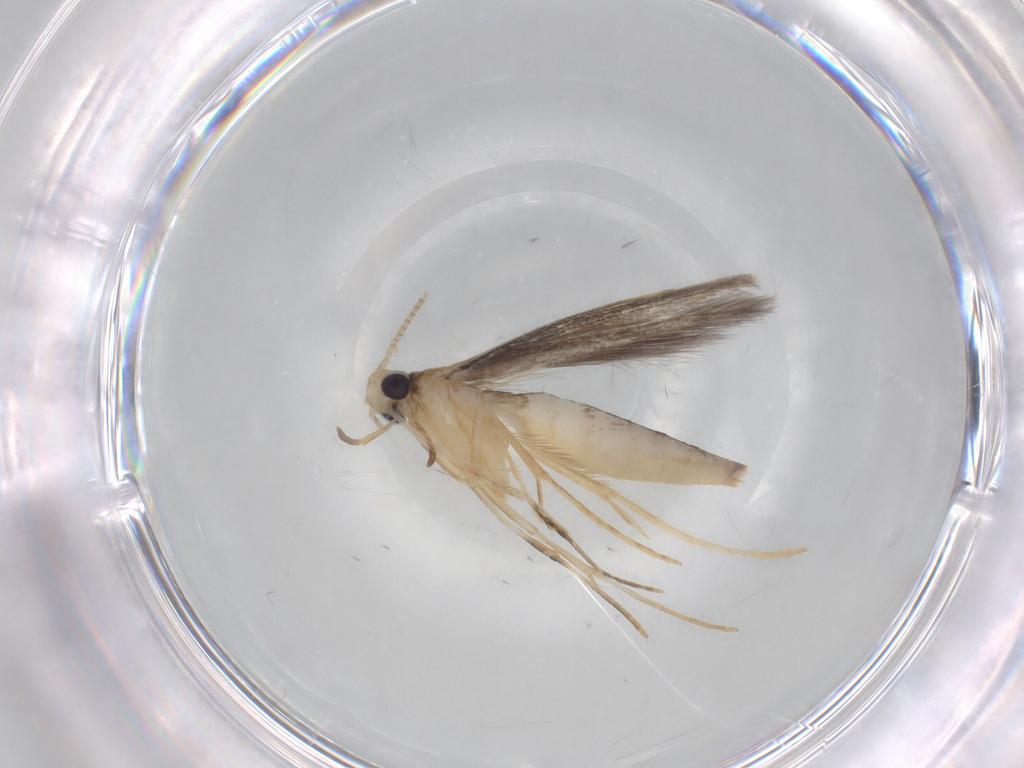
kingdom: Animalia
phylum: Arthropoda
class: Insecta
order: Lepidoptera
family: Gracillariidae
